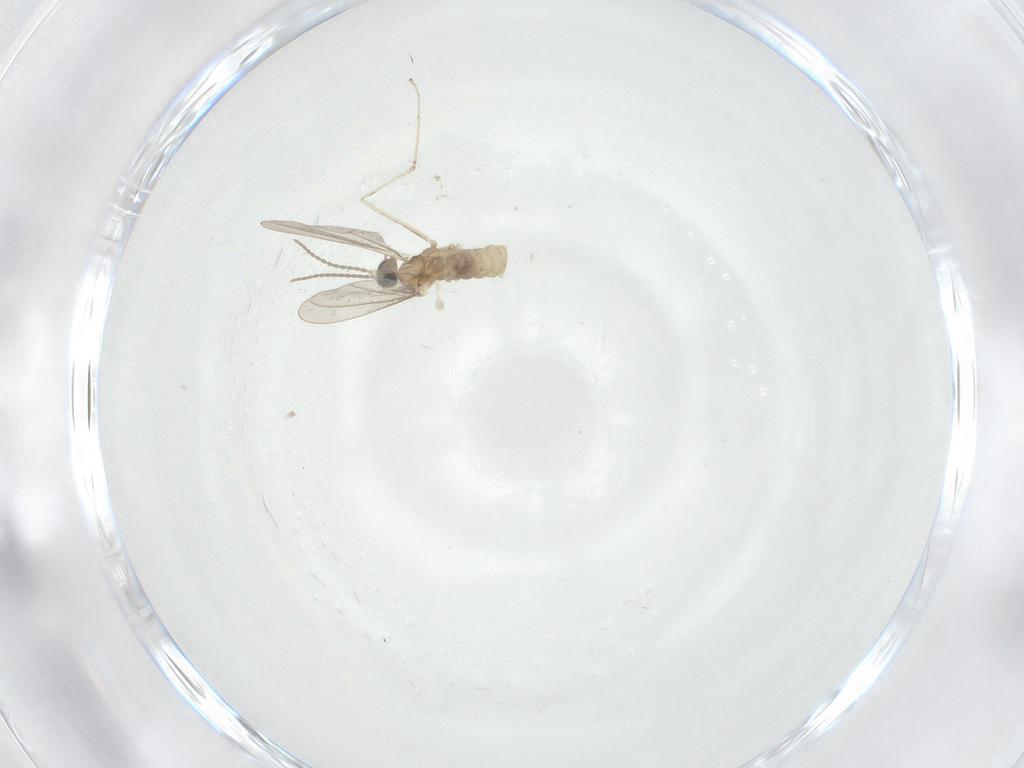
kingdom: Animalia
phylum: Arthropoda
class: Insecta
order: Diptera
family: Cecidomyiidae
